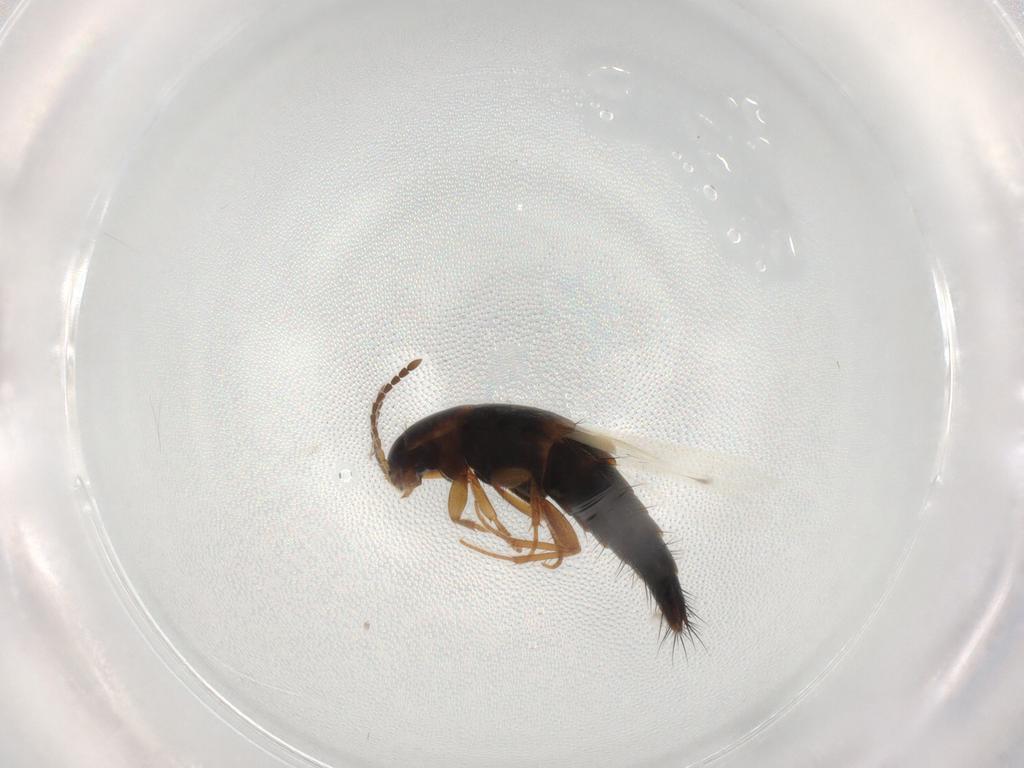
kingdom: Animalia
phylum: Arthropoda
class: Insecta
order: Coleoptera
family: Staphylinidae
